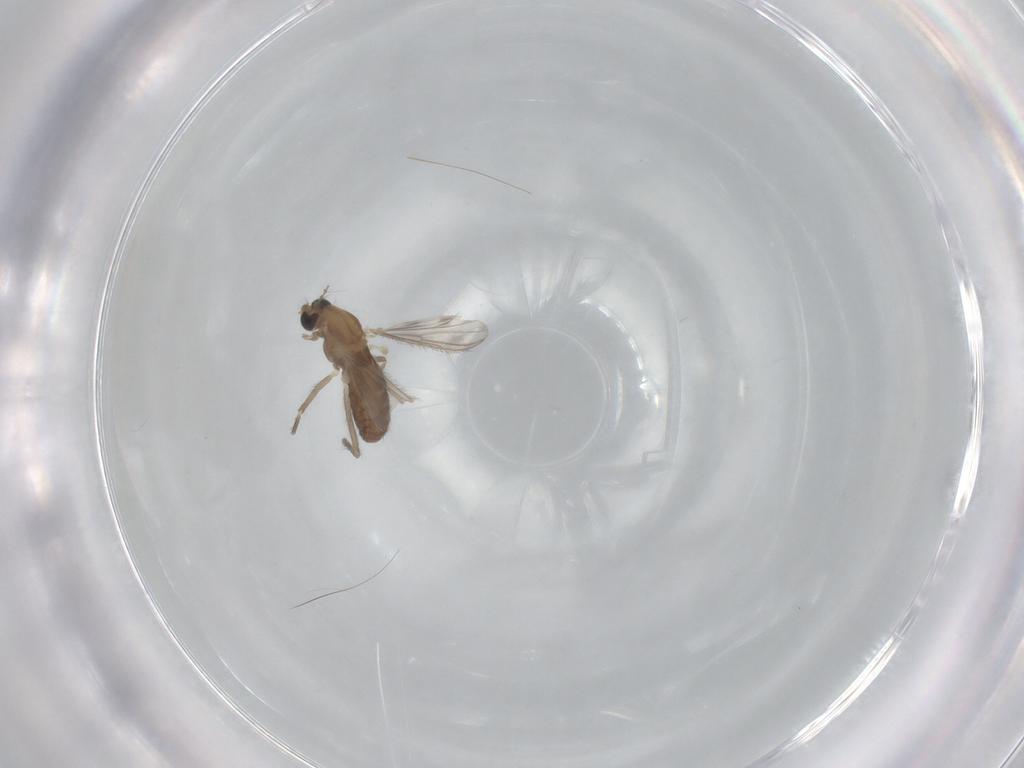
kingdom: Animalia
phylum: Arthropoda
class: Insecta
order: Diptera
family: Chironomidae
